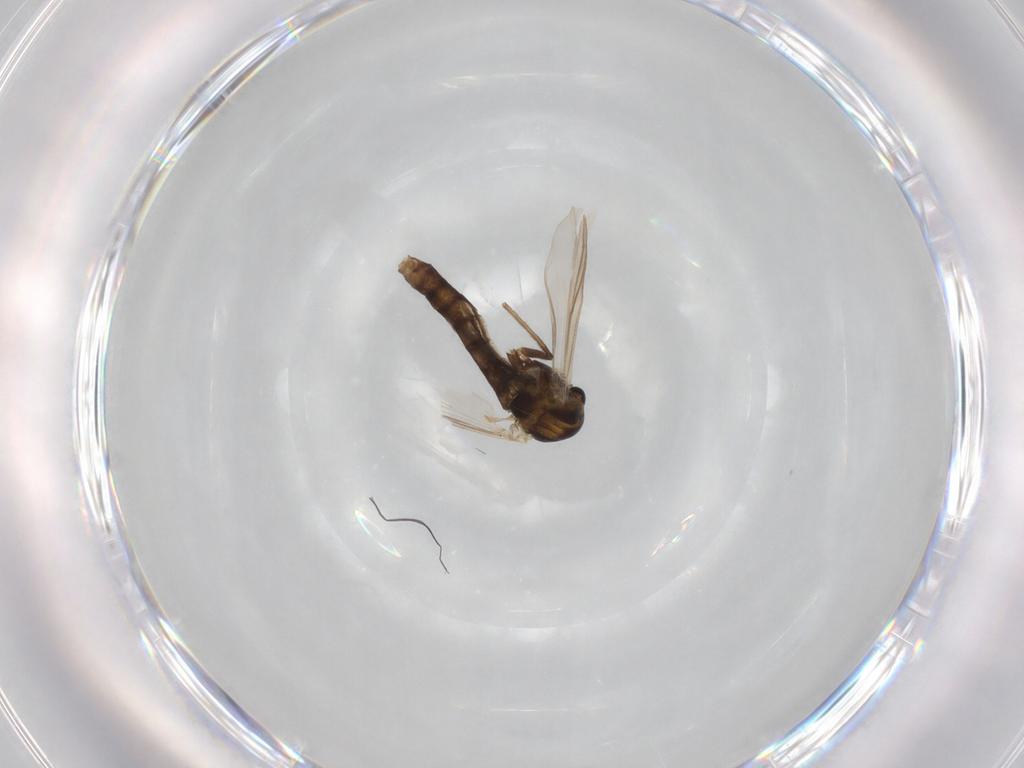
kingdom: Animalia
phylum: Arthropoda
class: Insecta
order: Diptera
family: Chironomidae
